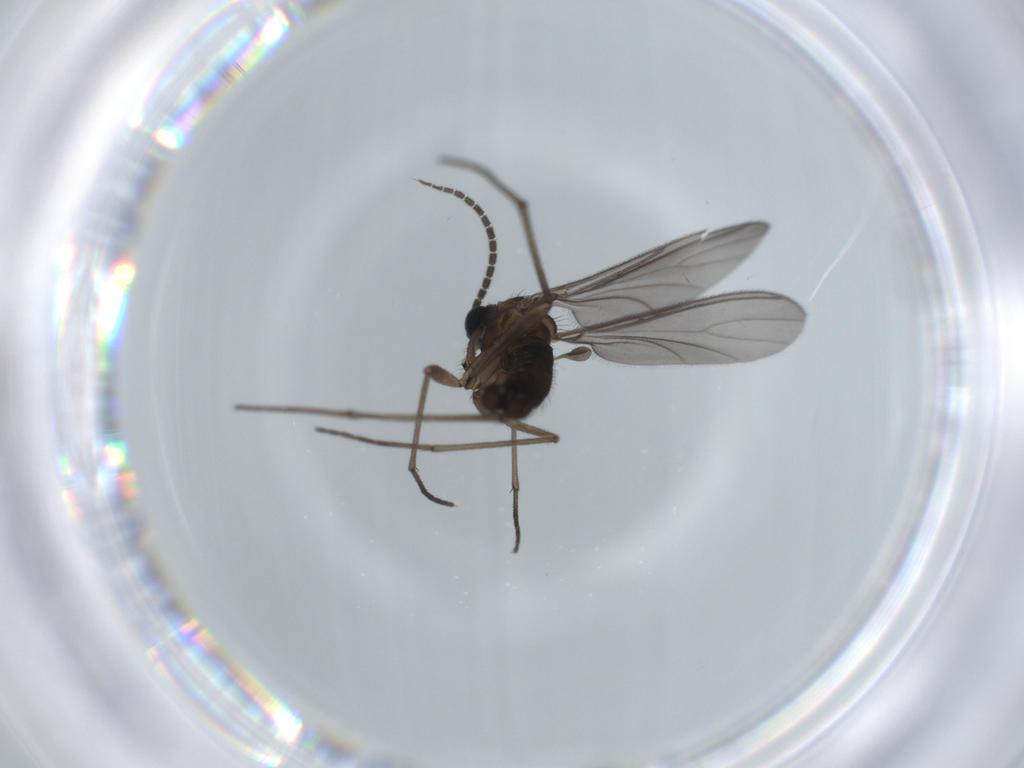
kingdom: Animalia
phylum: Arthropoda
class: Insecta
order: Diptera
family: Sciaridae
